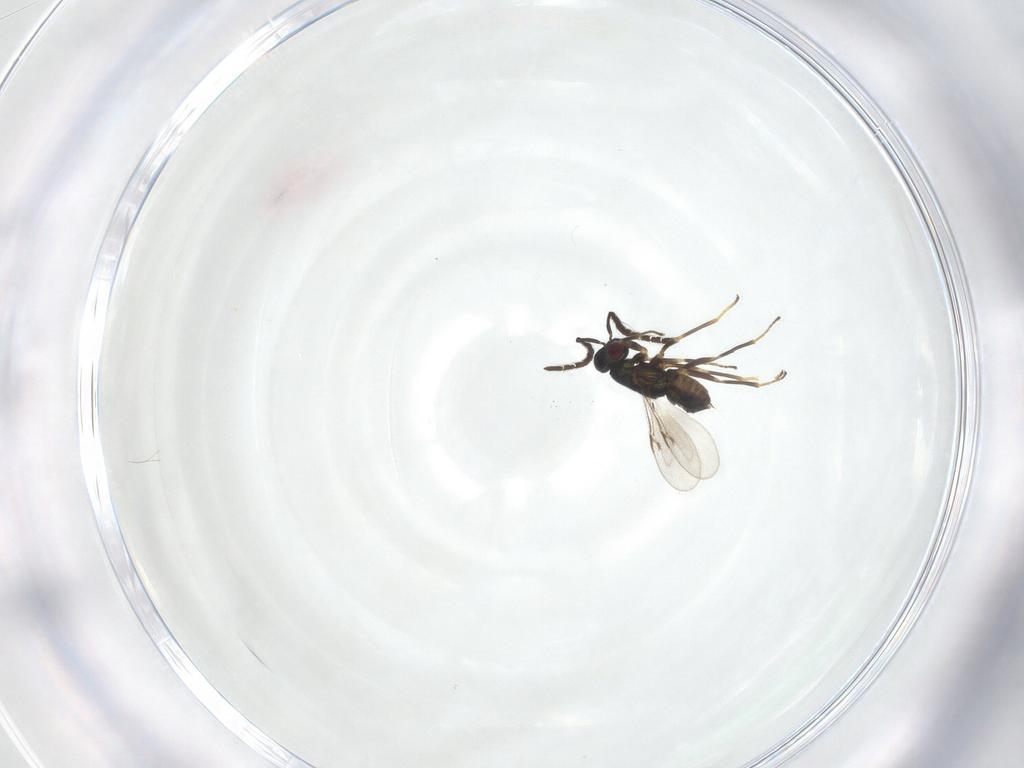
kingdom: Animalia
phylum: Arthropoda
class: Insecta
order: Hymenoptera
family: Encyrtidae
